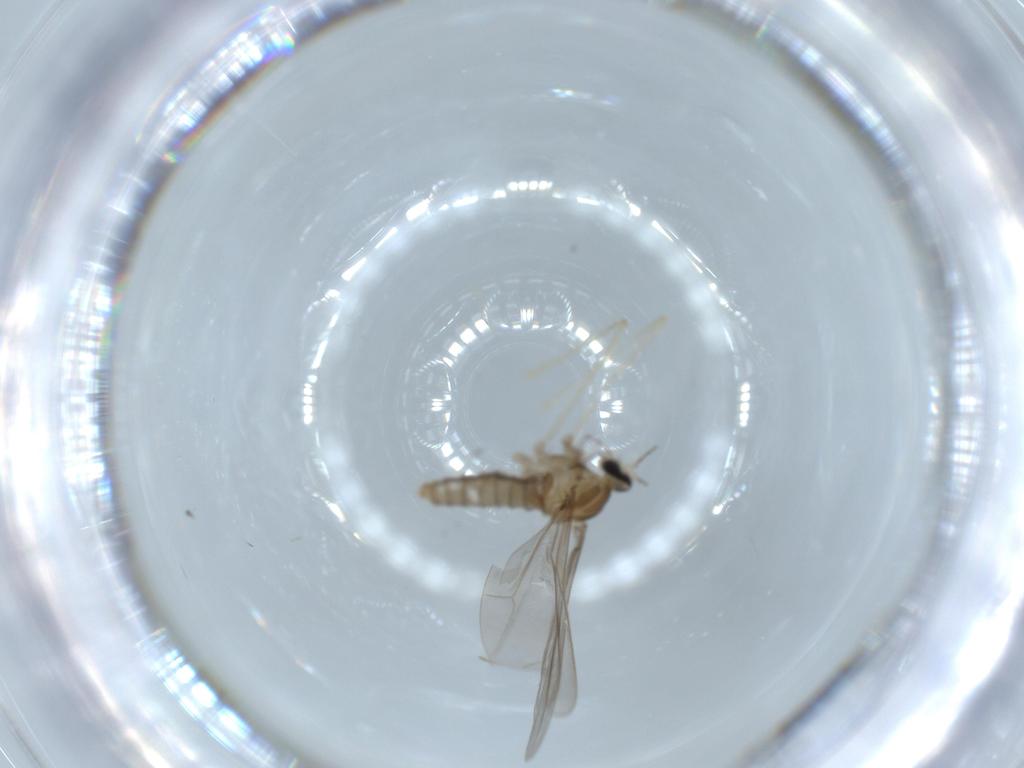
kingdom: Animalia
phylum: Arthropoda
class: Insecta
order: Diptera
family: Cecidomyiidae
